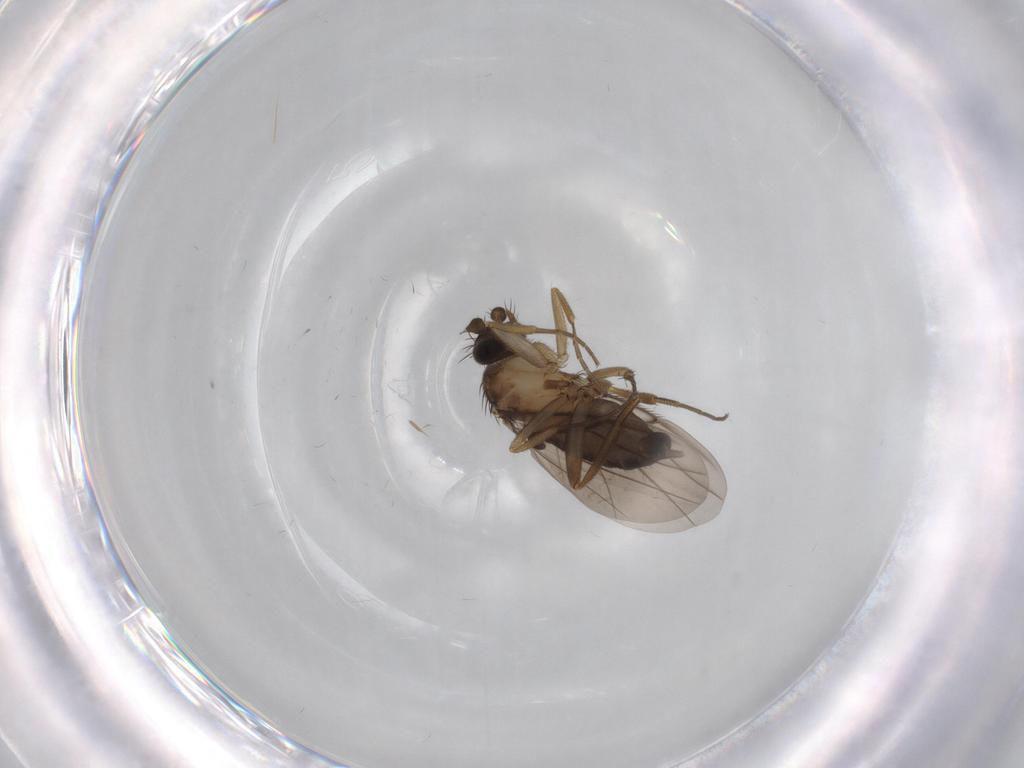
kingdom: Animalia
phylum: Arthropoda
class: Insecta
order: Diptera
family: Phoridae
